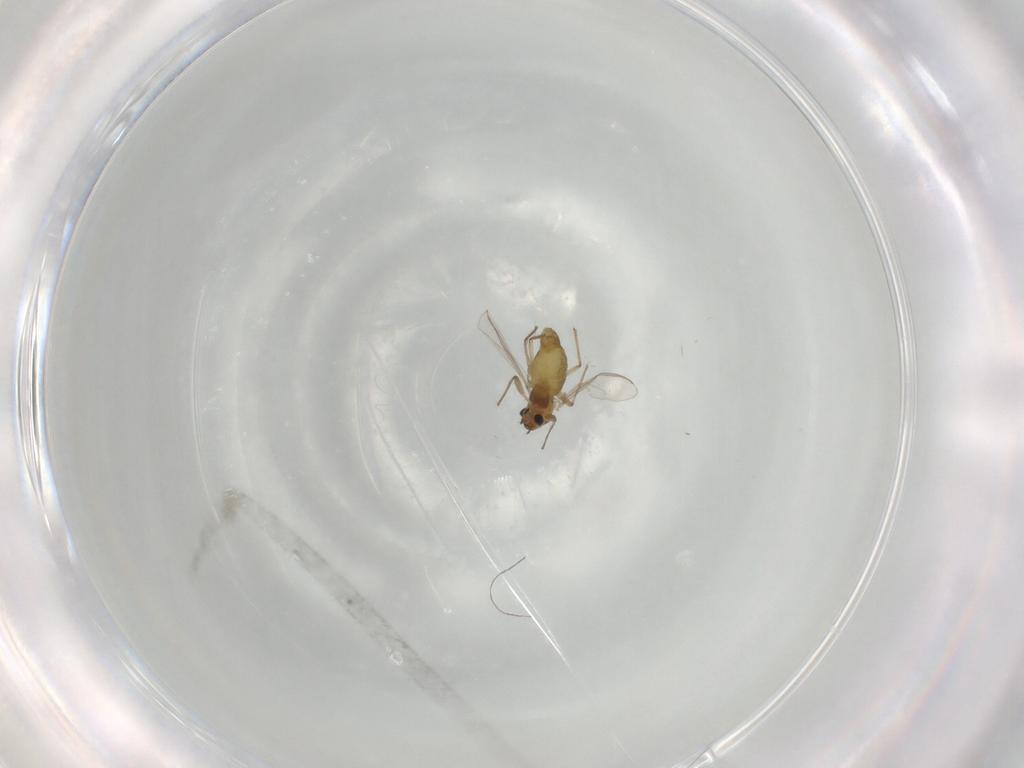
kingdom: Animalia
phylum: Arthropoda
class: Insecta
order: Diptera
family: Chironomidae
